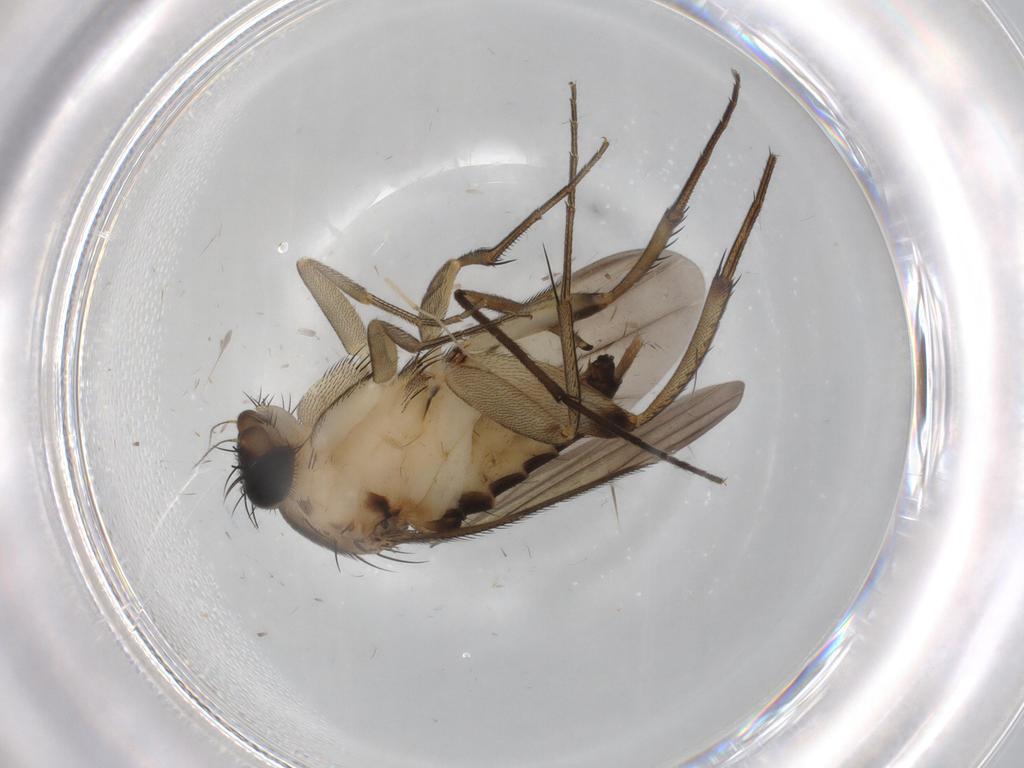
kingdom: Animalia
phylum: Arthropoda
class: Insecta
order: Diptera
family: Phoridae
